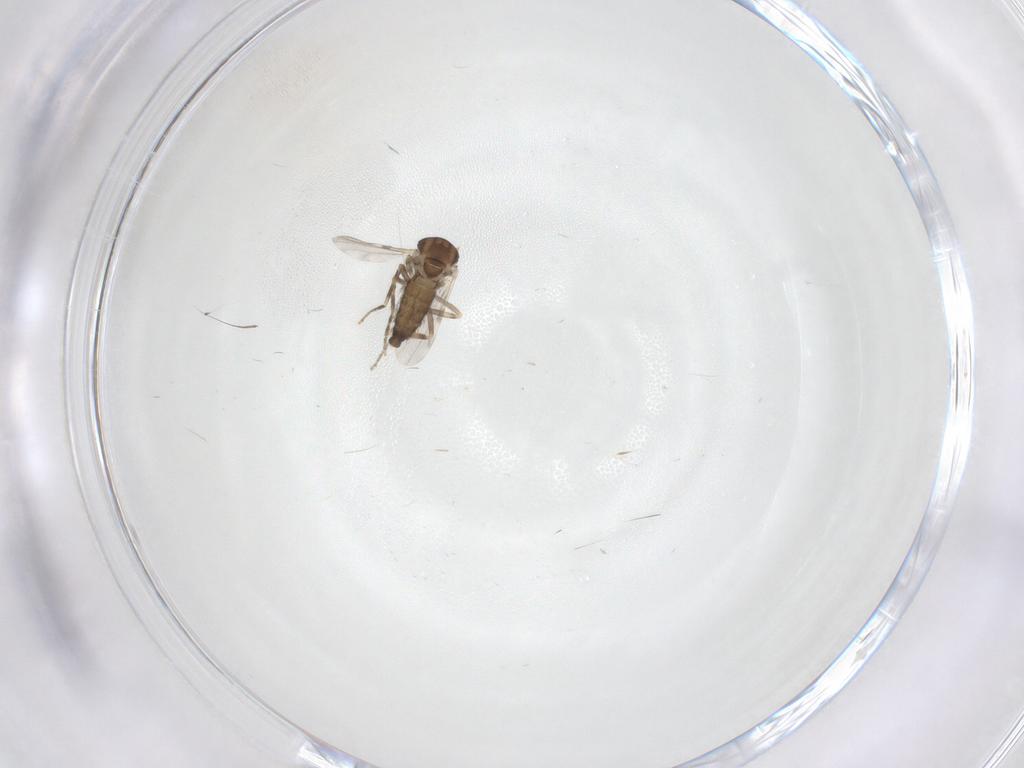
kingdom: Animalia
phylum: Arthropoda
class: Insecta
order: Diptera
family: Ceratopogonidae
